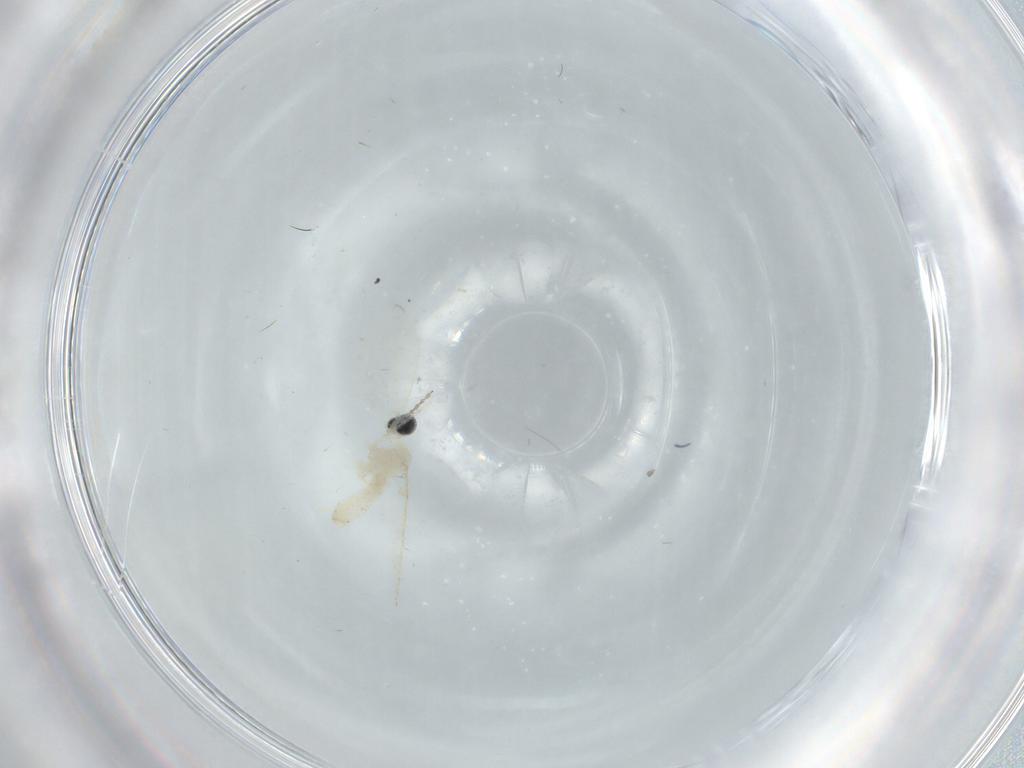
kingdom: Animalia
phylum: Arthropoda
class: Insecta
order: Diptera
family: Cecidomyiidae
